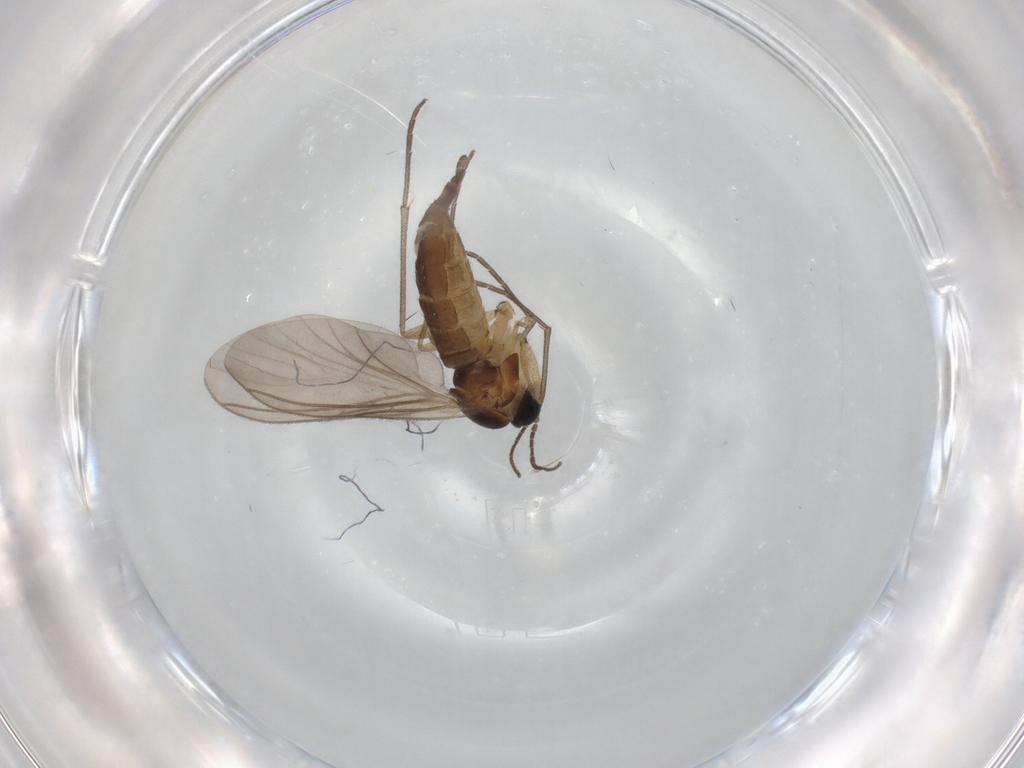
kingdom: Animalia
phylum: Arthropoda
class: Insecta
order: Diptera
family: Sciaridae
